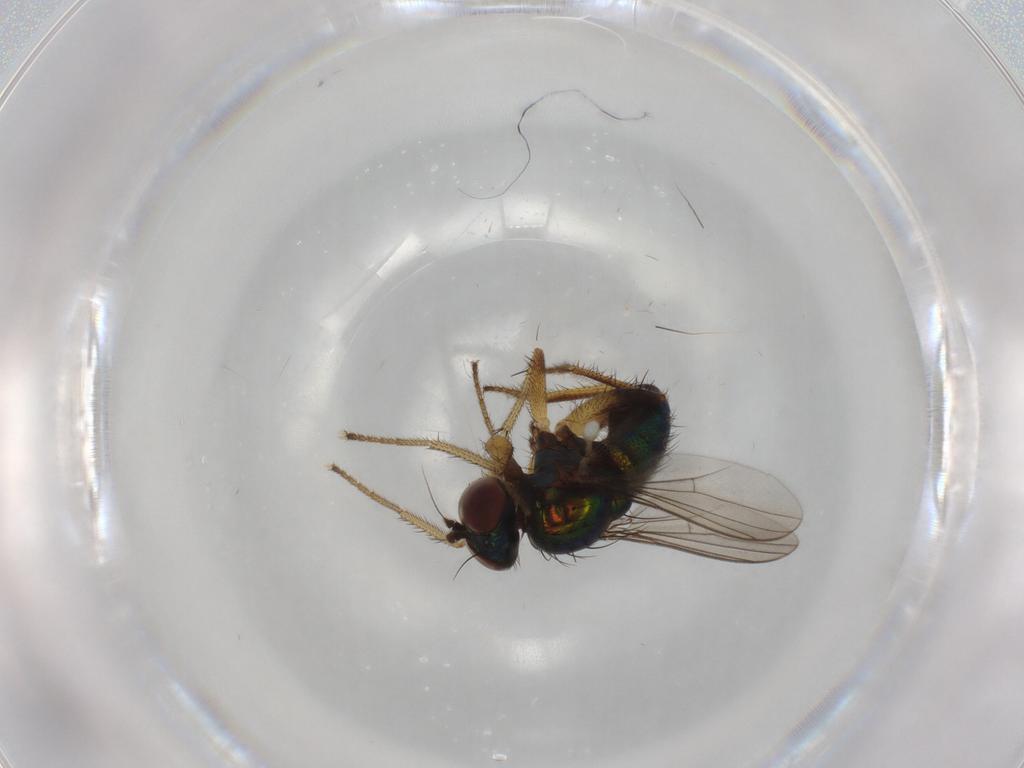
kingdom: Animalia
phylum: Arthropoda
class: Insecta
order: Diptera
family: Dolichopodidae
